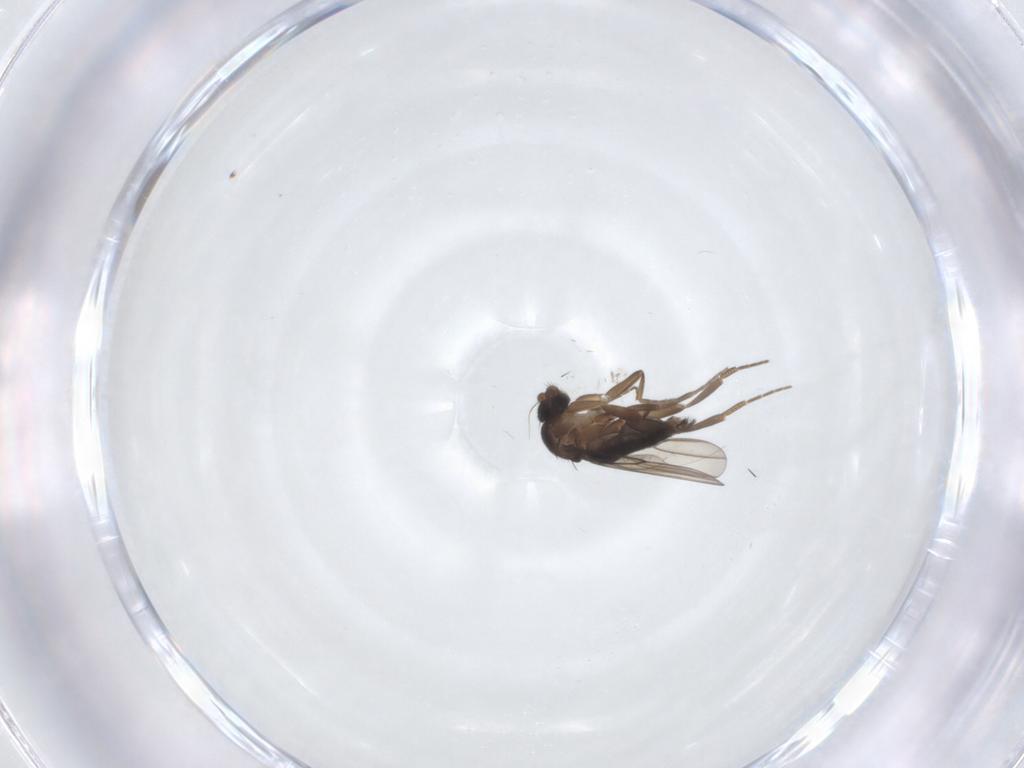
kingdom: Animalia
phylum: Arthropoda
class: Insecta
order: Diptera
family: Phoridae
